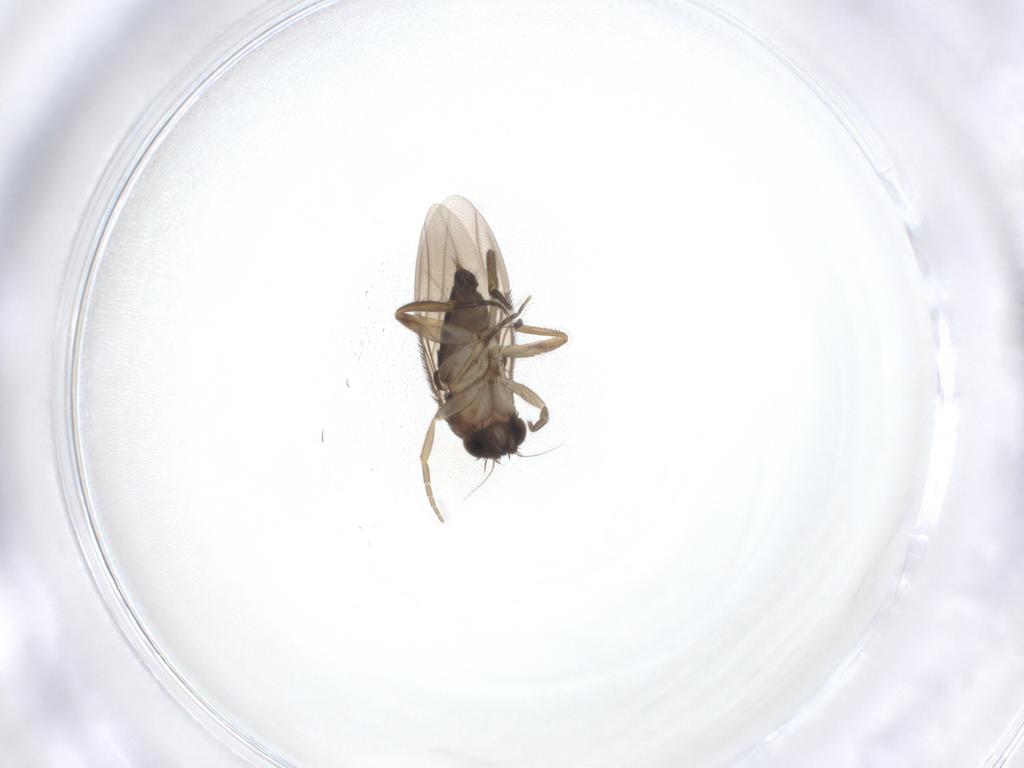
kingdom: Animalia
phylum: Arthropoda
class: Insecta
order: Diptera
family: Phoridae
